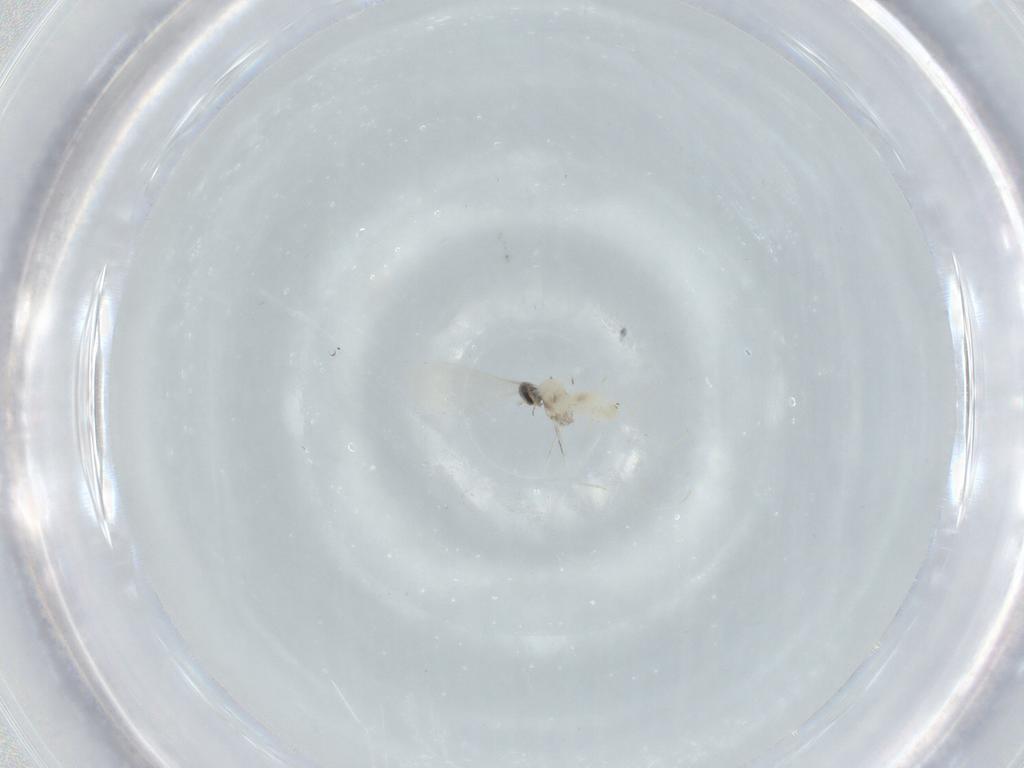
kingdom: Animalia
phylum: Arthropoda
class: Insecta
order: Diptera
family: Cecidomyiidae
